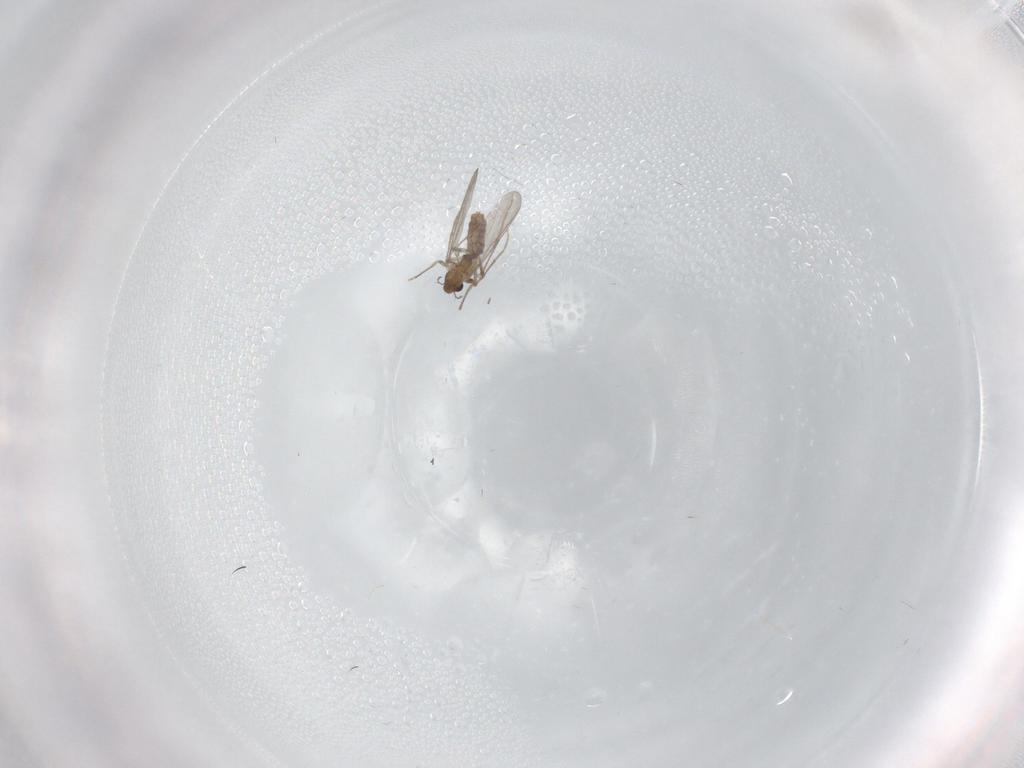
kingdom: Animalia
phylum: Arthropoda
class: Insecta
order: Diptera
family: Chironomidae
